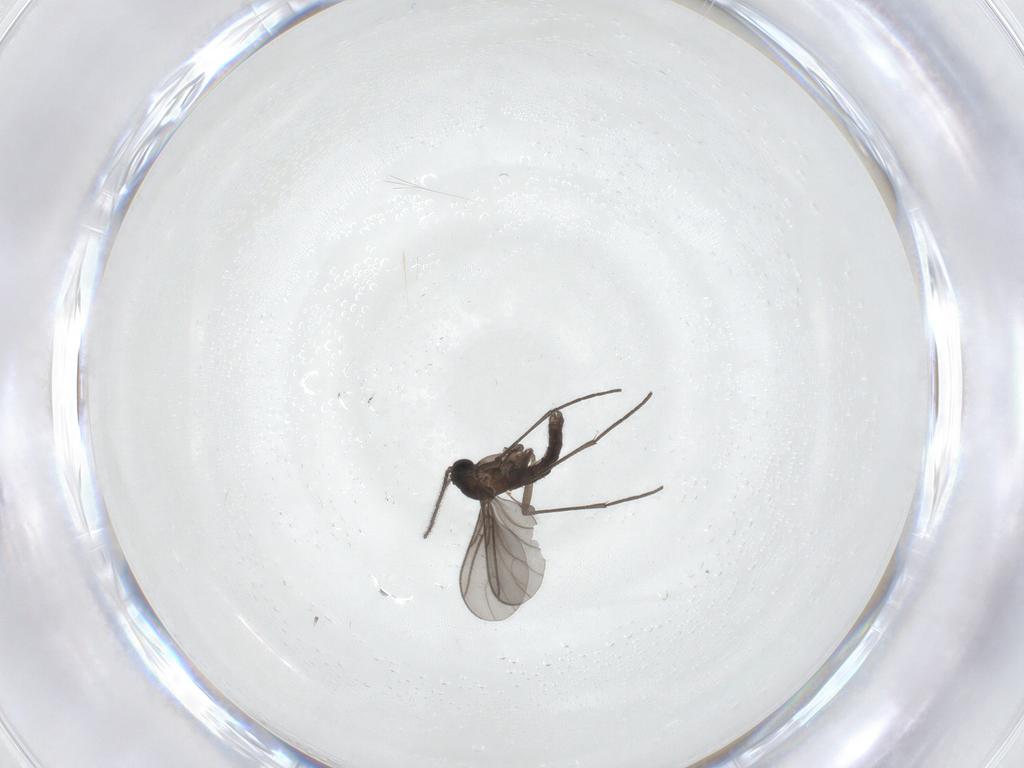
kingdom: Animalia
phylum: Arthropoda
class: Insecta
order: Diptera
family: Sciaridae
